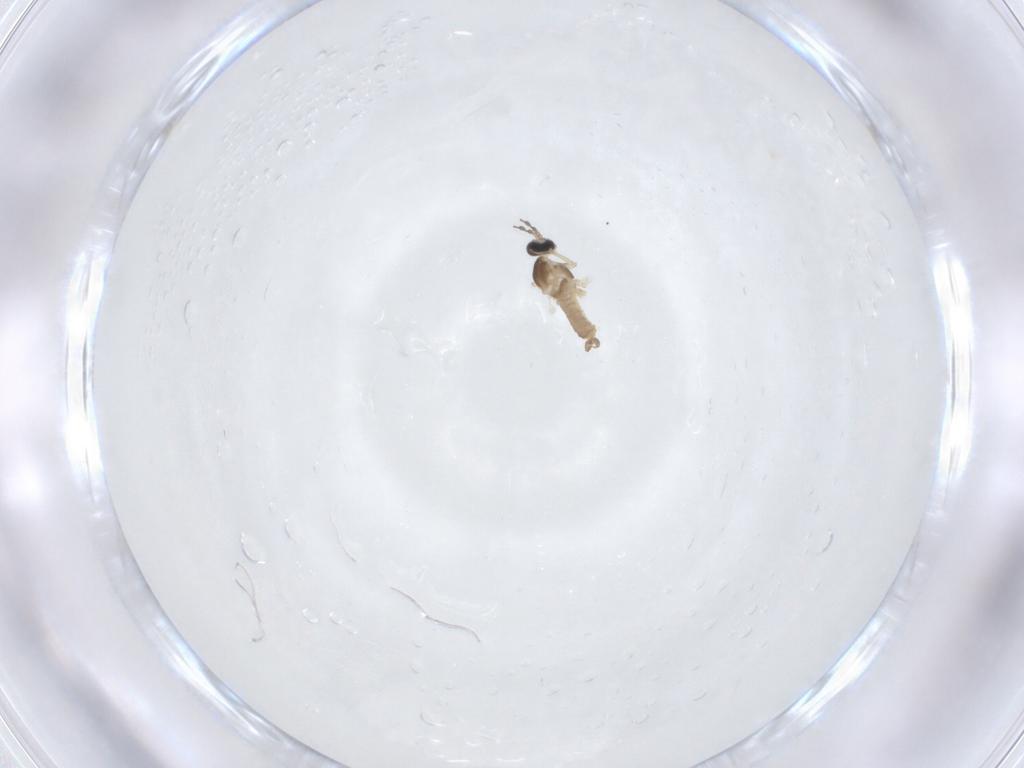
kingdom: Animalia
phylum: Arthropoda
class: Insecta
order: Diptera
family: Cecidomyiidae
